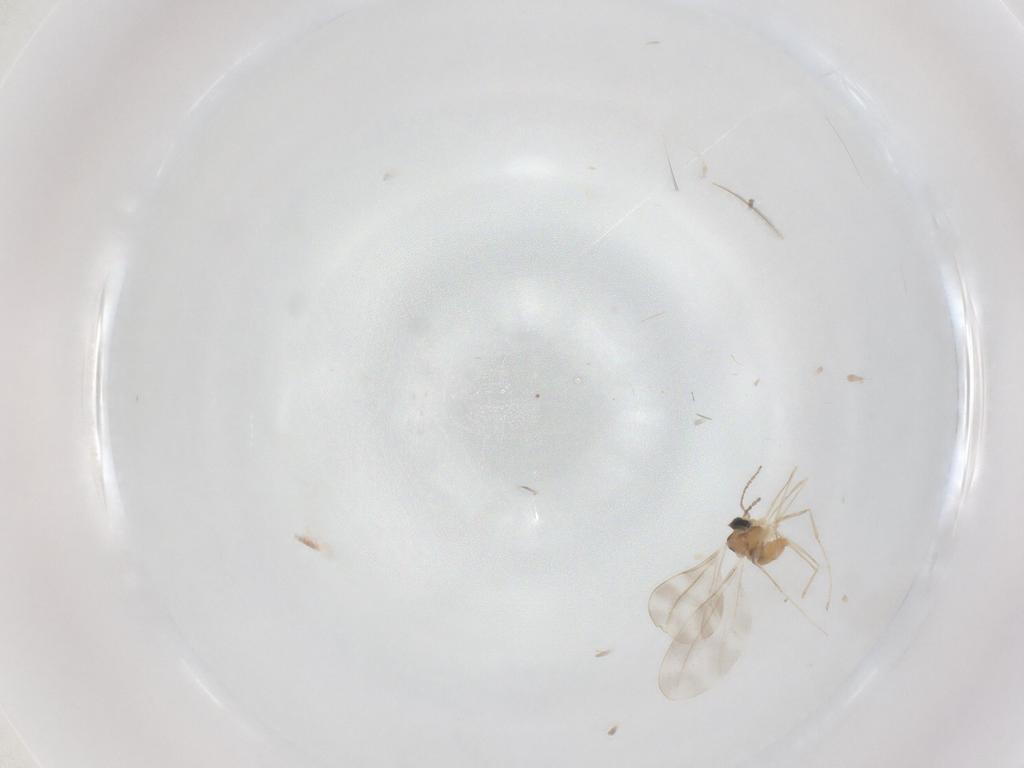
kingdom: Animalia
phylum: Arthropoda
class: Insecta
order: Diptera
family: Cecidomyiidae
